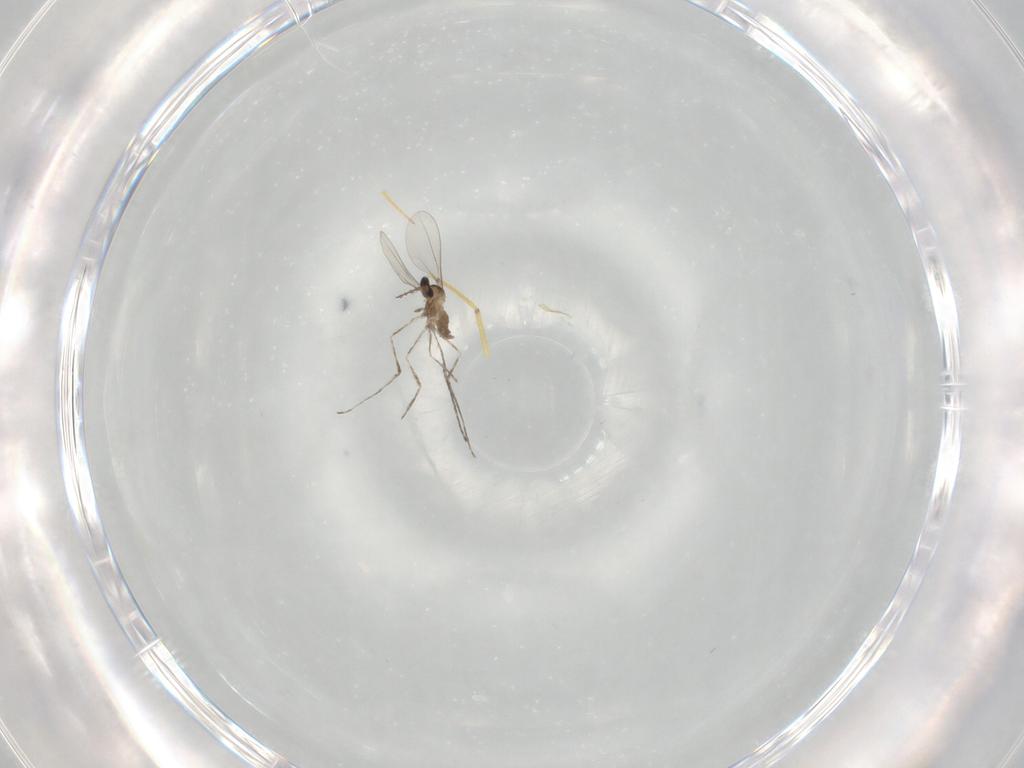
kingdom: Animalia
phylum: Arthropoda
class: Insecta
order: Diptera
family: Cecidomyiidae
